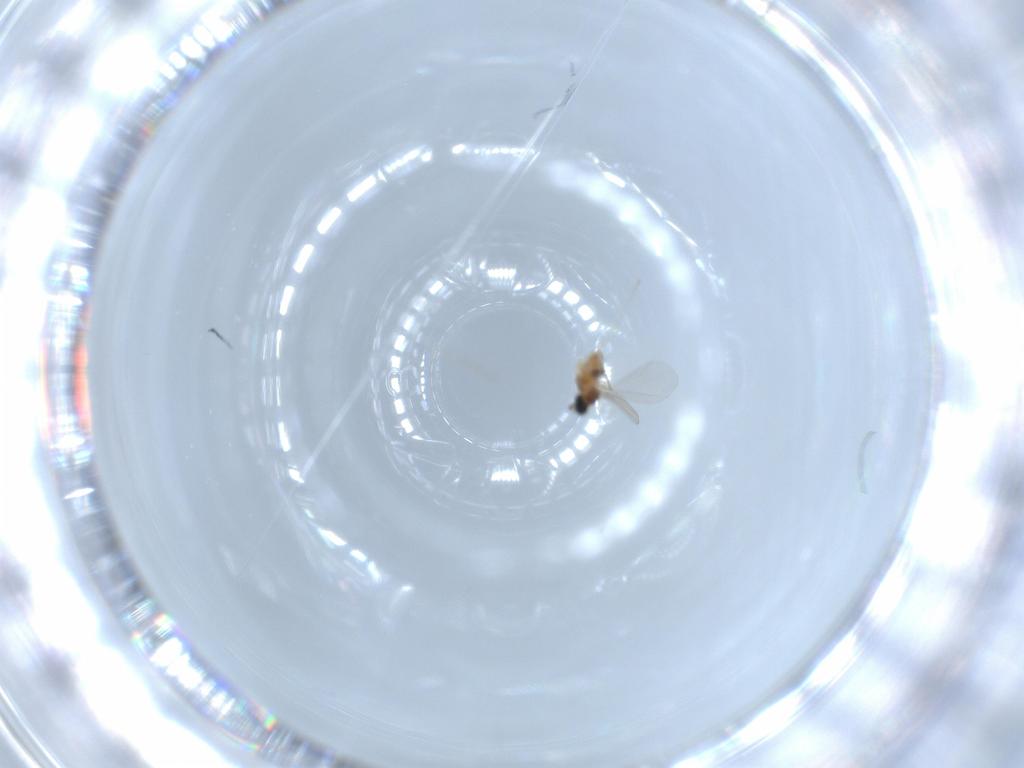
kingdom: Animalia
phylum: Arthropoda
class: Insecta
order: Diptera
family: Cecidomyiidae
